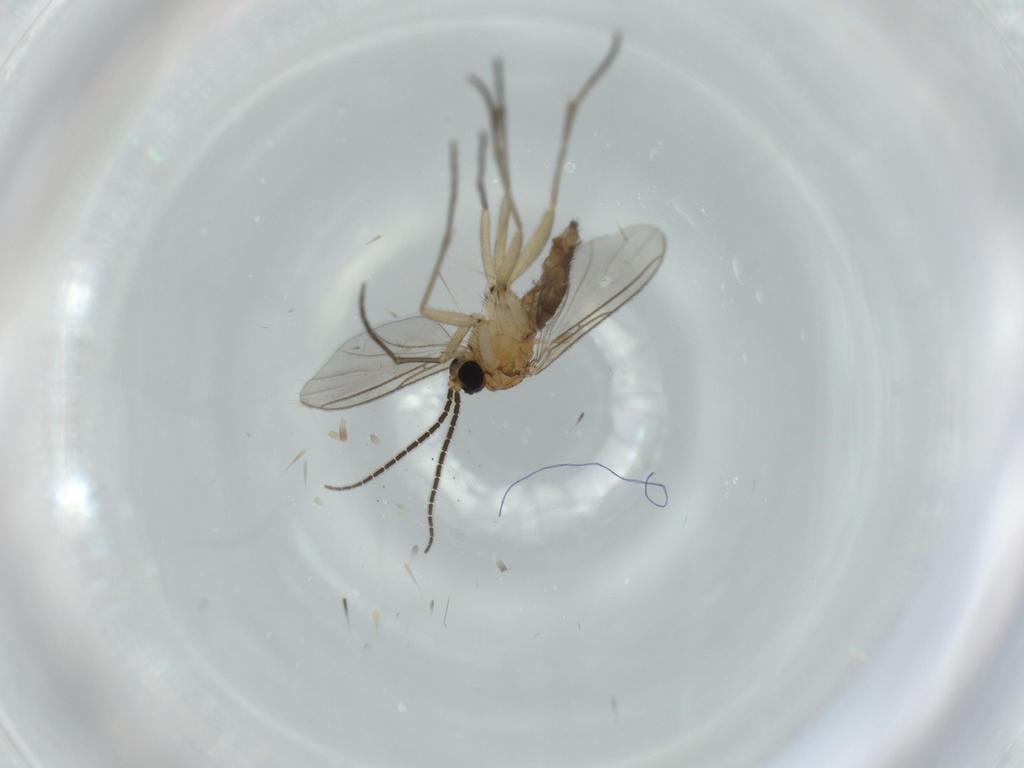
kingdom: Animalia
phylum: Arthropoda
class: Insecta
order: Diptera
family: Sciaridae
